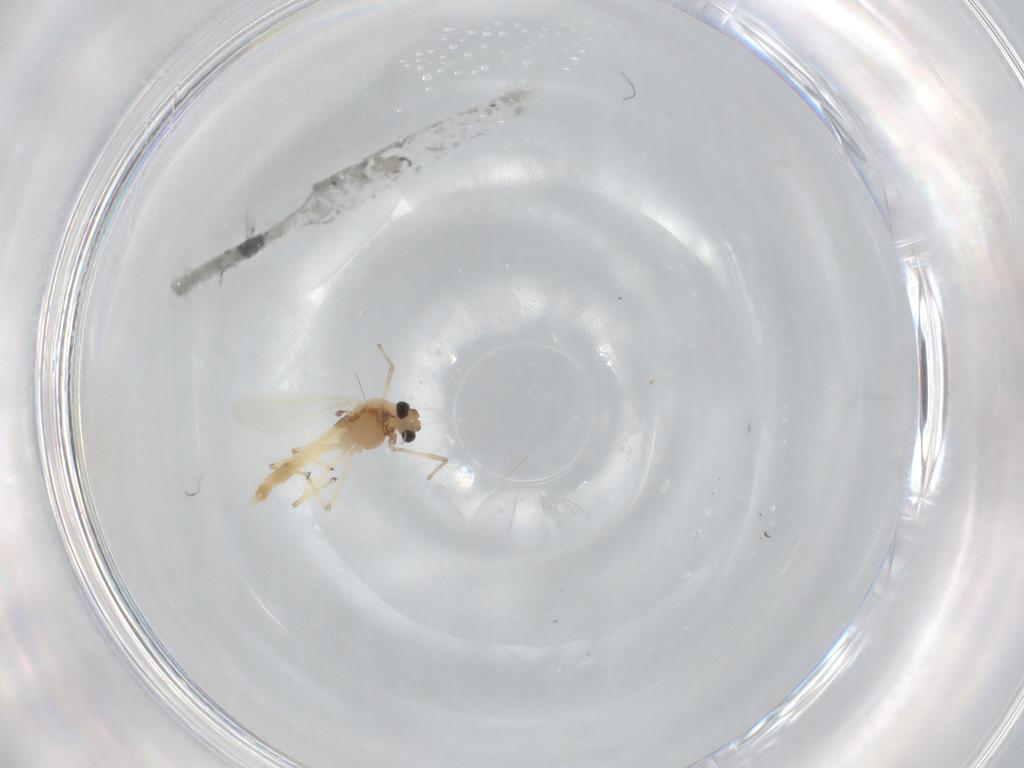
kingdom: Animalia
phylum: Arthropoda
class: Insecta
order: Diptera
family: Chironomidae
